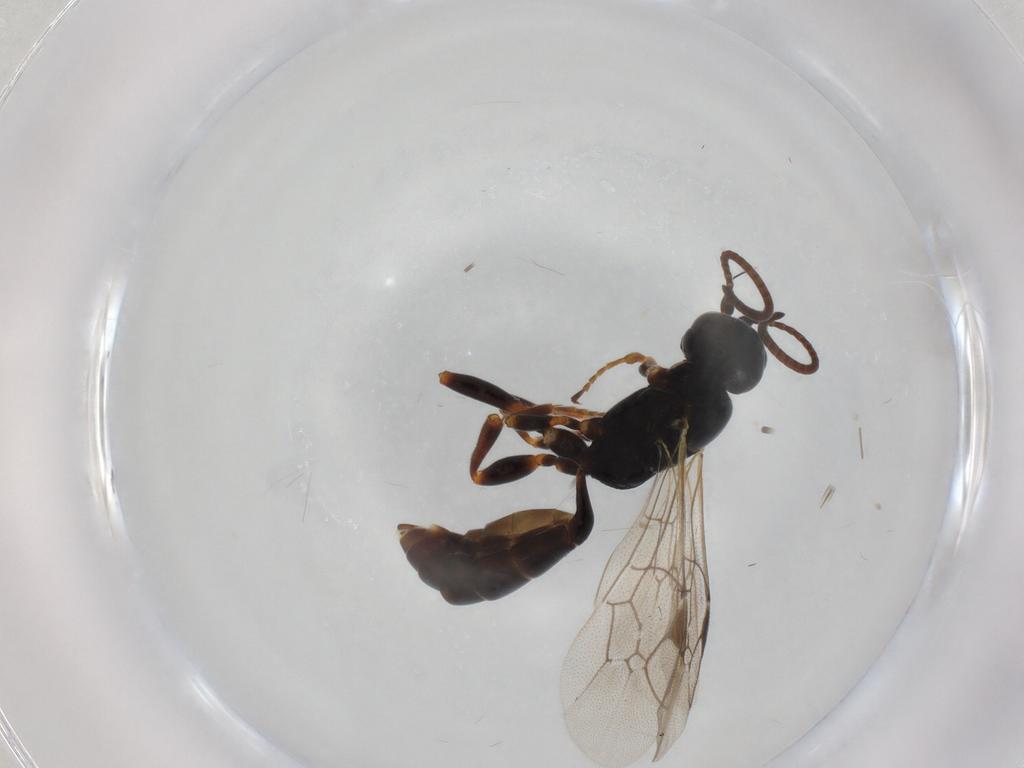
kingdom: Animalia
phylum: Arthropoda
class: Insecta
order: Hymenoptera
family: Ichneumonidae
